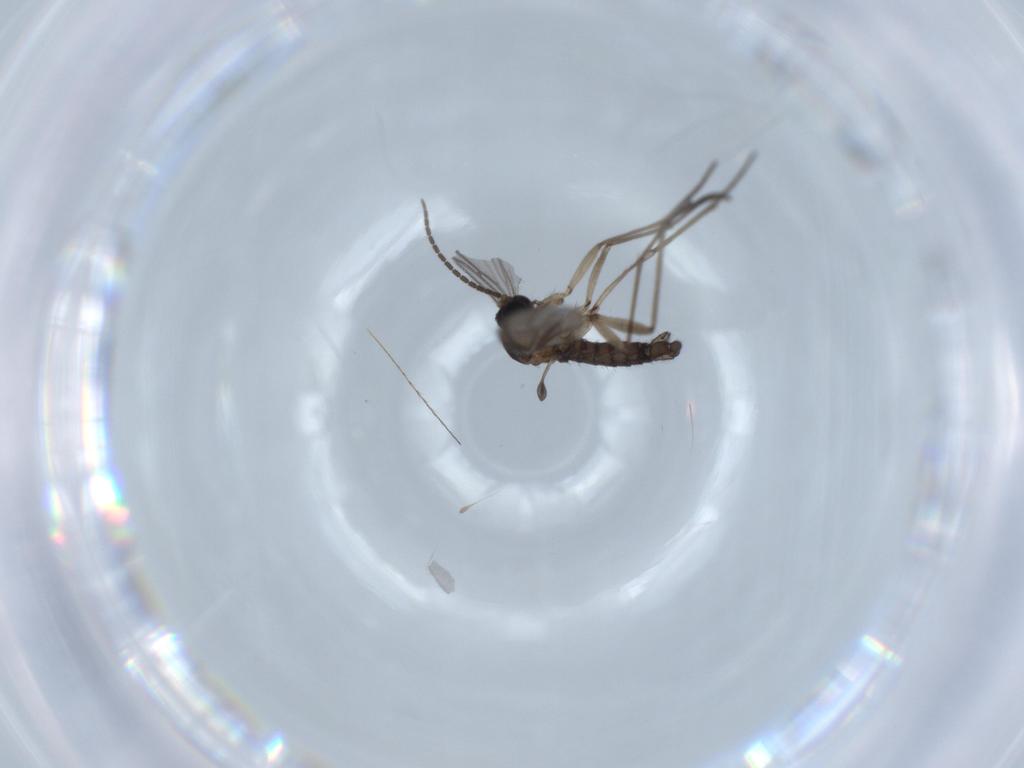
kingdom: Animalia
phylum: Arthropoda
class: Insecta
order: Diptera
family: Sciaridae
